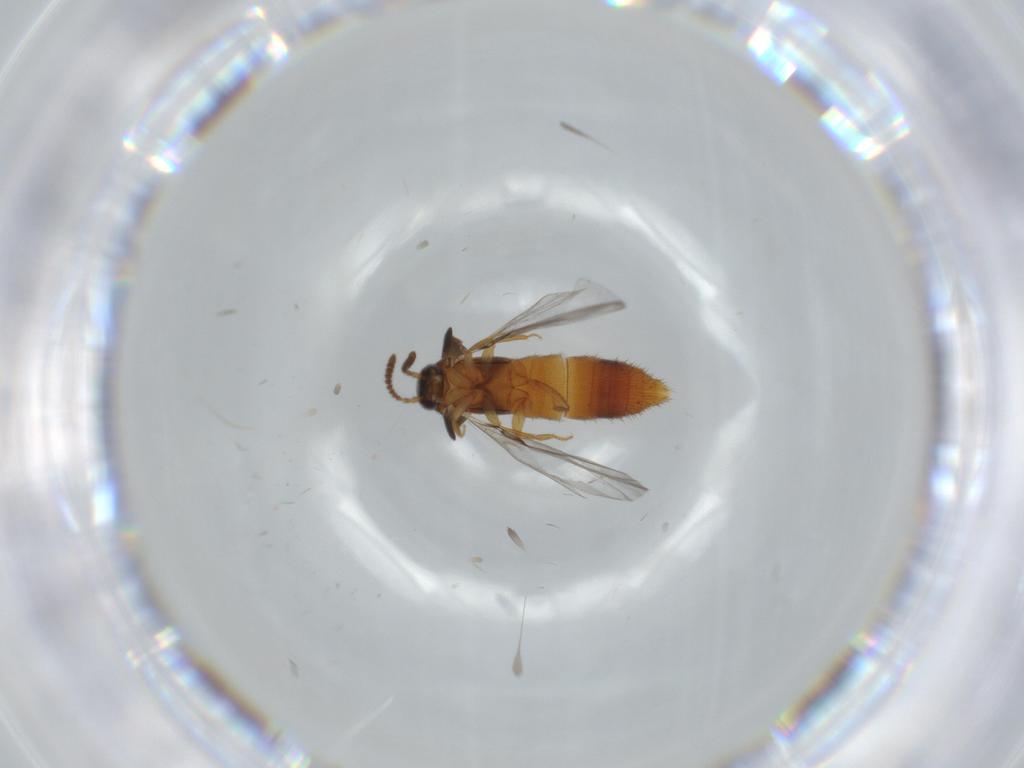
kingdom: Animalia
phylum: Arthropoda
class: Insecta
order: Coleoptera
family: Staphylinidae
